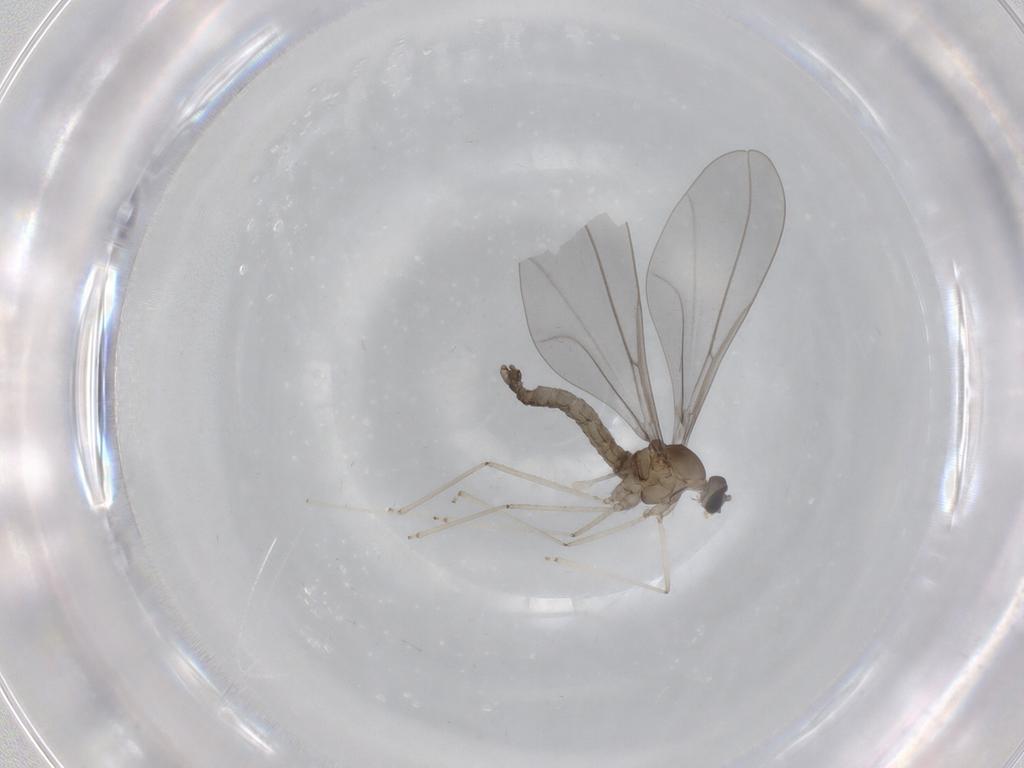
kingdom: Animalia
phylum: Arthropoda
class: Insecta
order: Diptera
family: Cecidomyiidae
